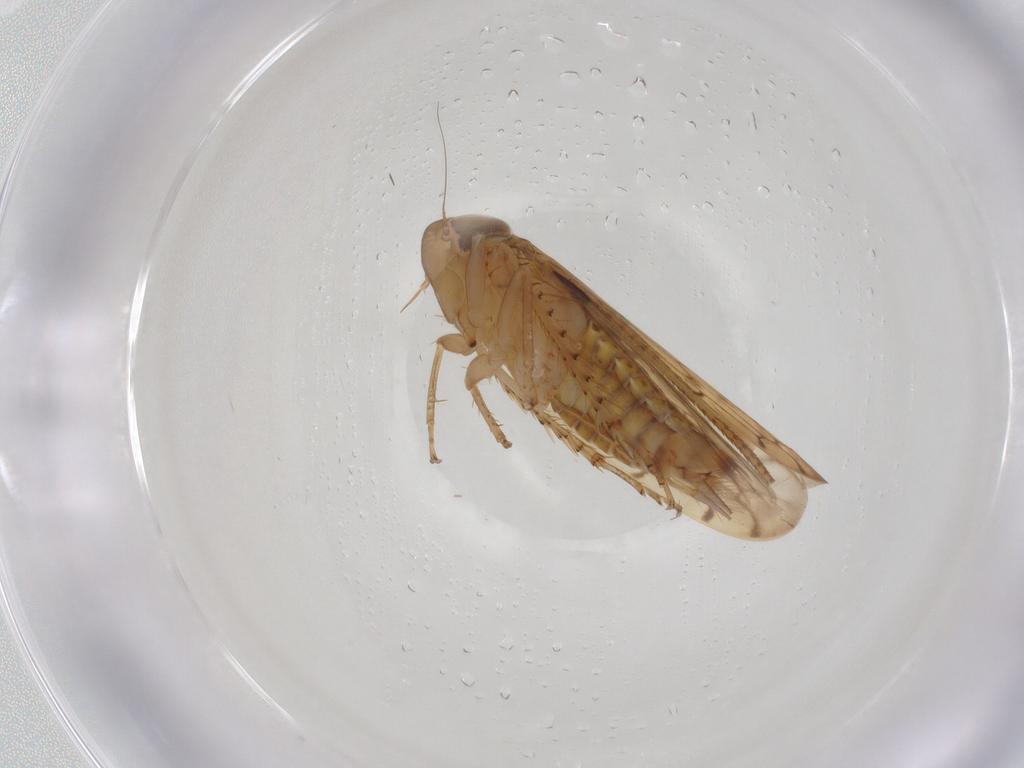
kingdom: Animalia
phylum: Arthropoda
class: Insecta
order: Hemiptera
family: Cicadellidae
